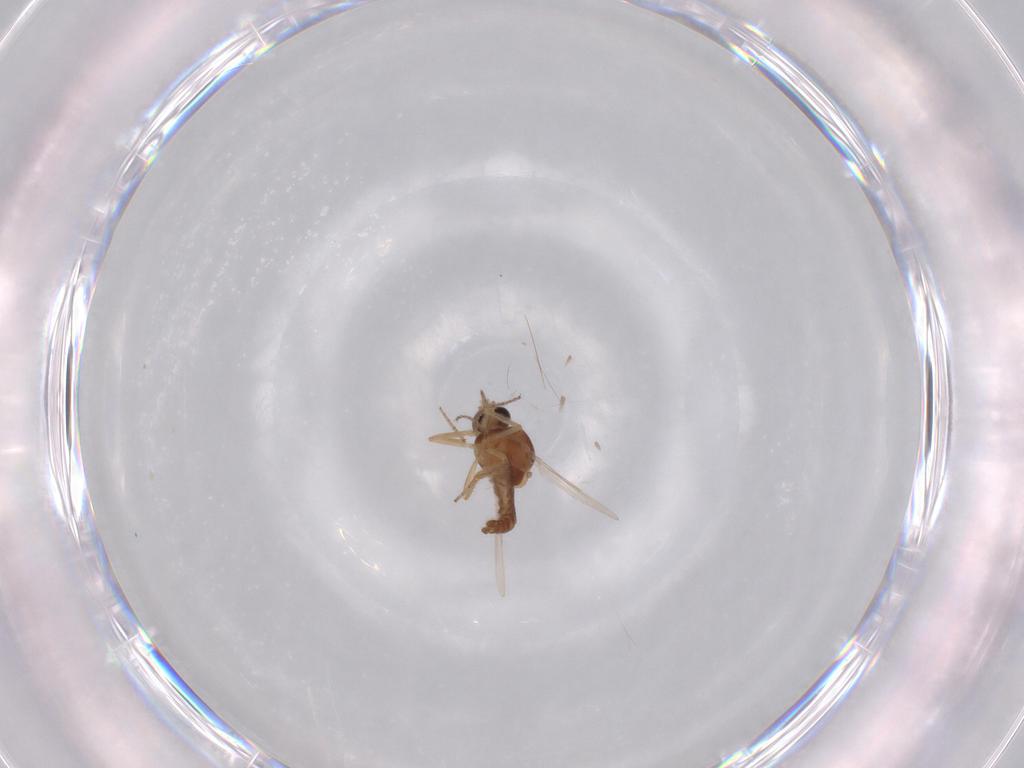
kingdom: Animalia
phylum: Arthropoda
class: Insecta
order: Diptera
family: Ceratopogonidae
